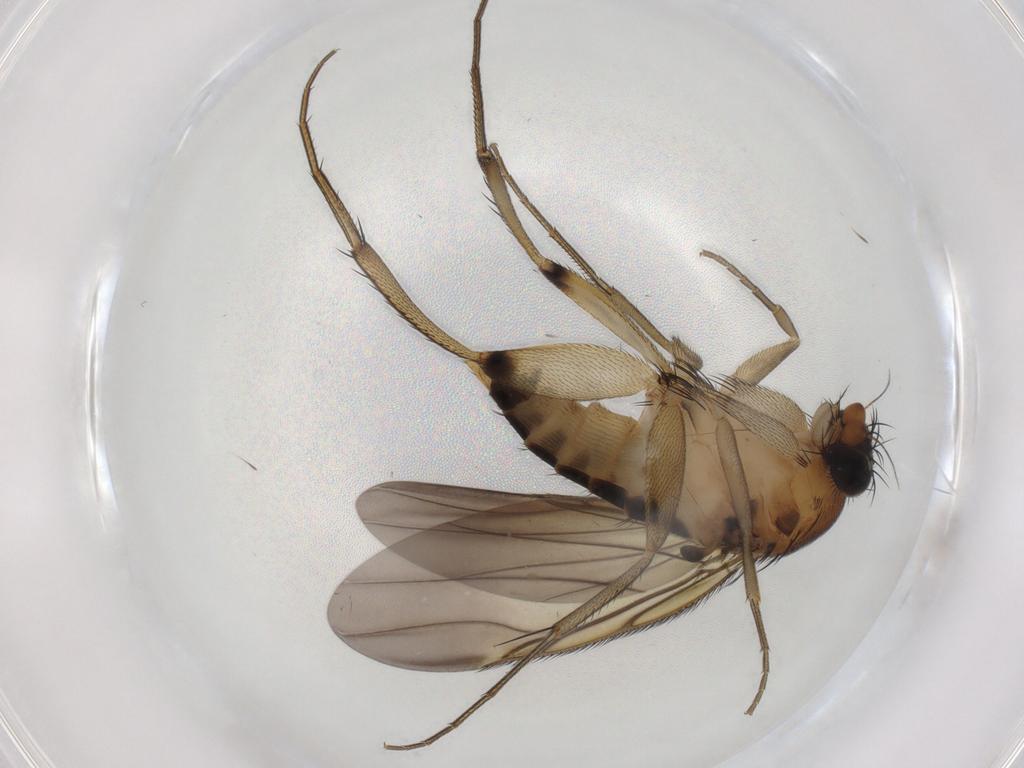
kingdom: Animalia
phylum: Arthropoda
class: Insecta
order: Diptera
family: Phoridae
